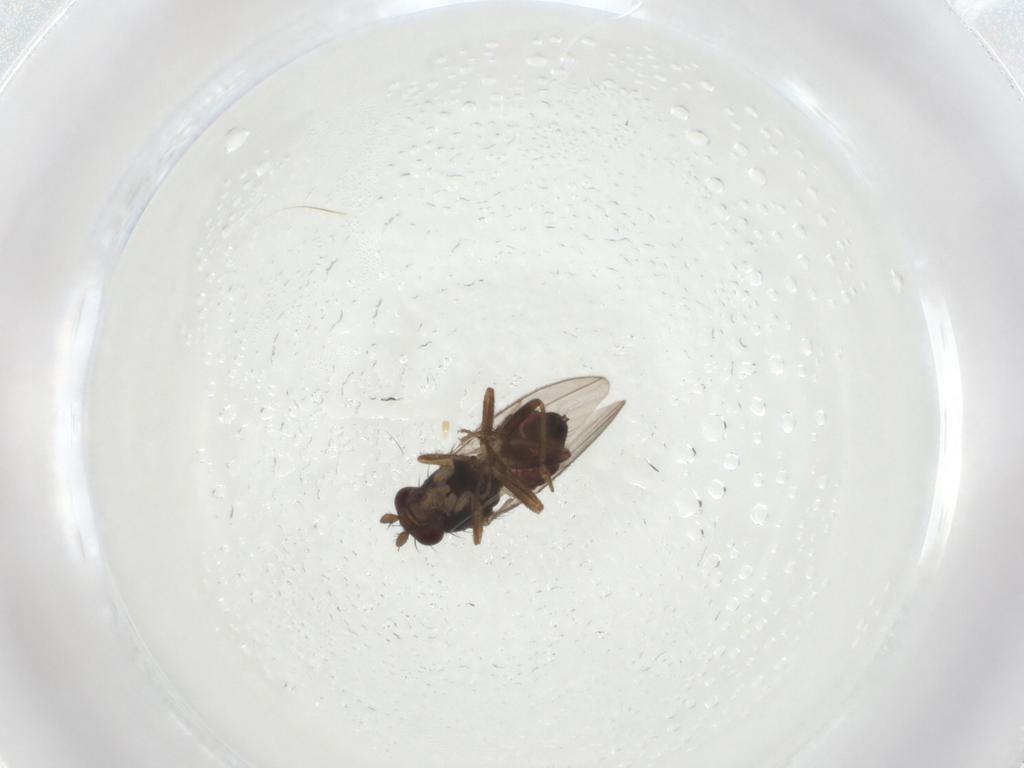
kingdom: Animalia
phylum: Arthropoda
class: Insecta
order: Diptera
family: Sphaeroceridae
